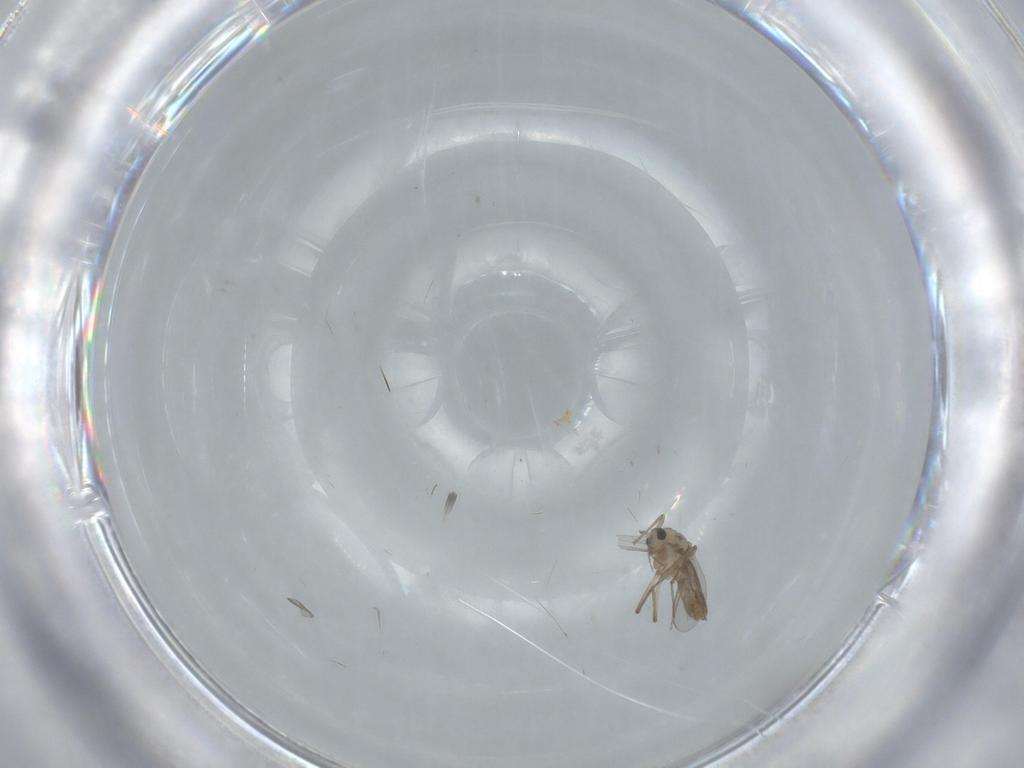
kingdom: Animalia
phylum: Arthropoda
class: Insecta
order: Diptera
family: Chironomidae
